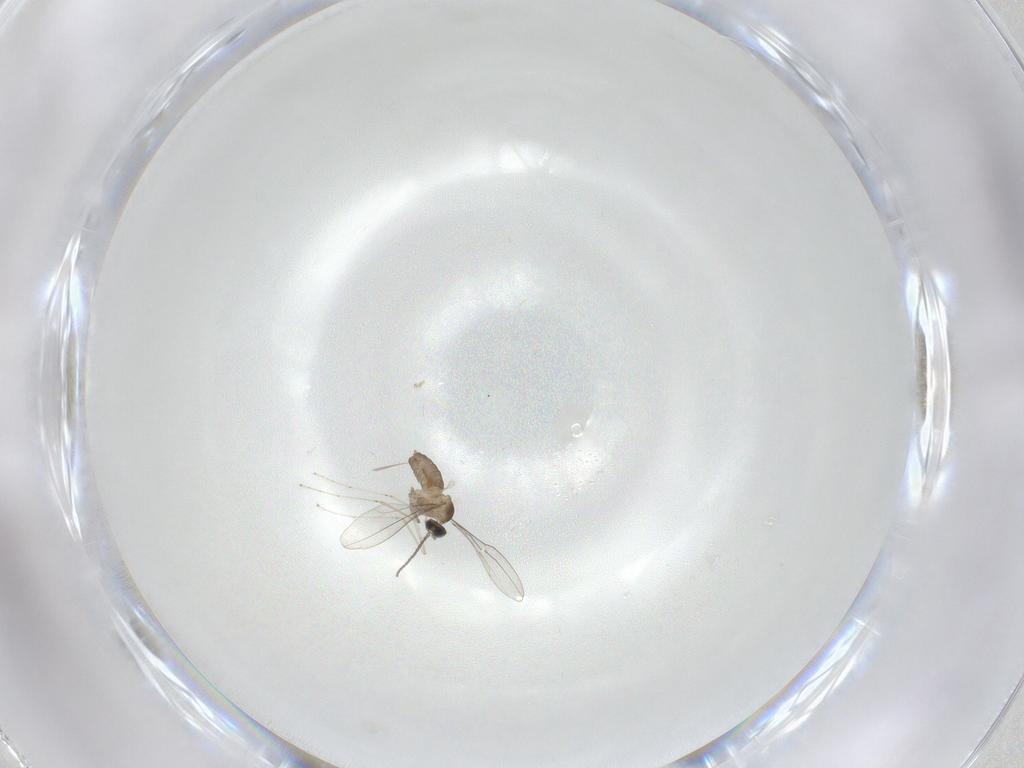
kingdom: Animalia
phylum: Arthropoda
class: Insecta
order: Diptera
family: Cecidomyiidae
